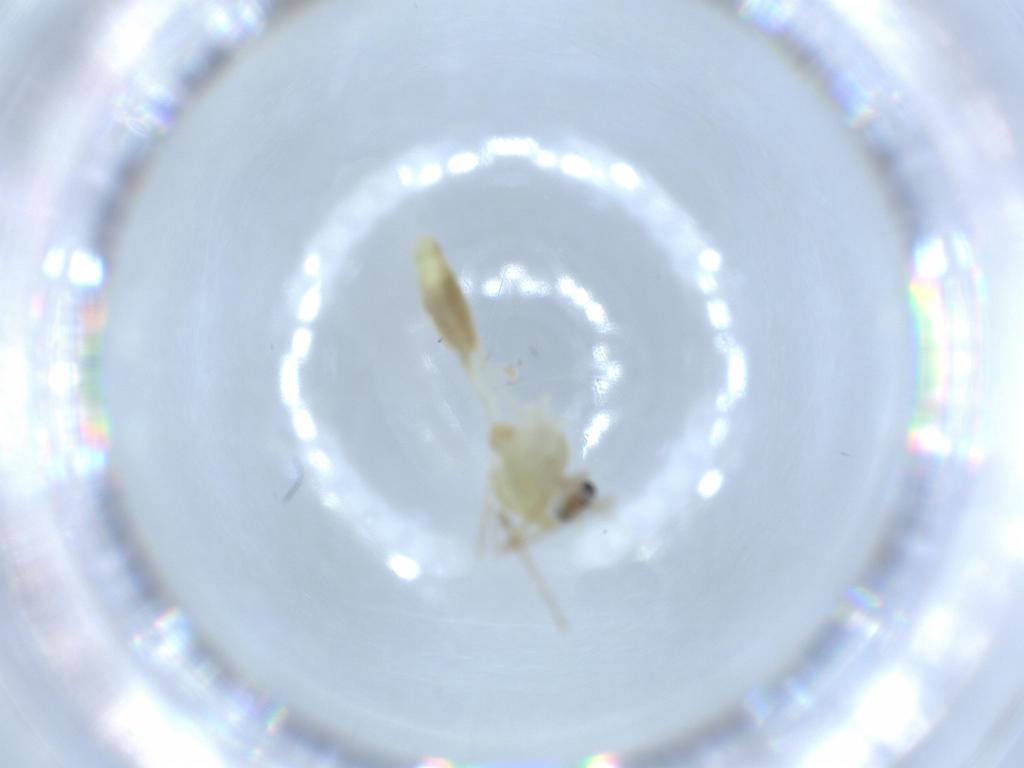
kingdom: Animalia
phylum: Arthropoda
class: Insecta
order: Diptera
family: Chironomidae
